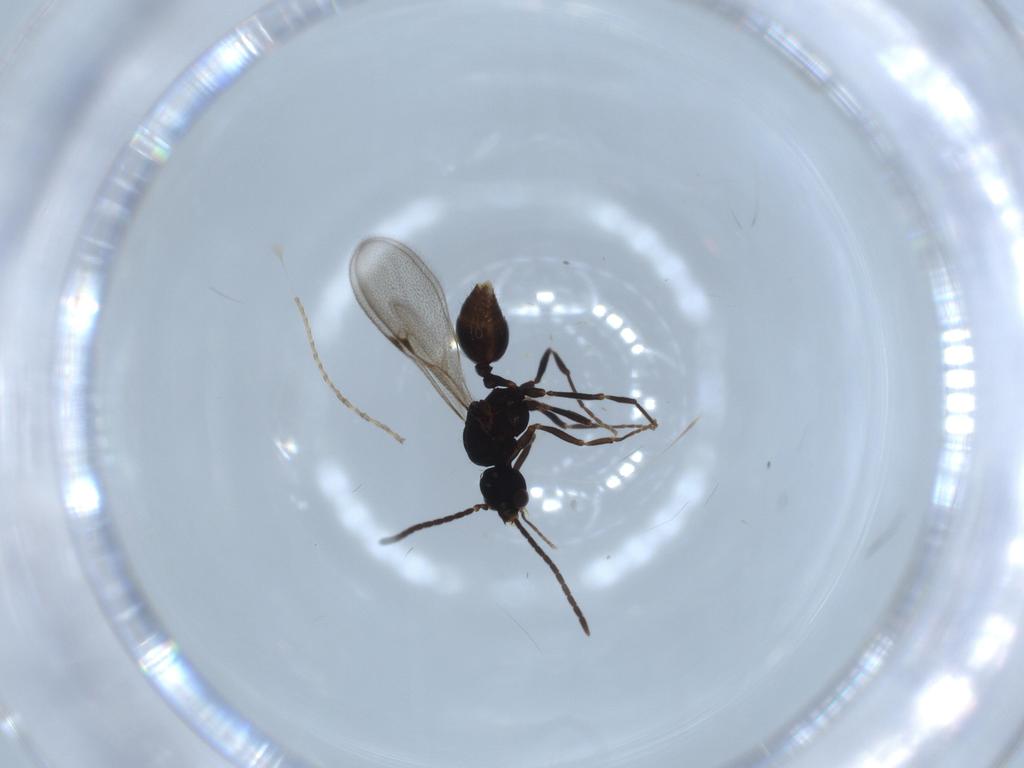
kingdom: Animalia
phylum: Arthropoda
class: Insecta
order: Hymenoptera
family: Formicidae
